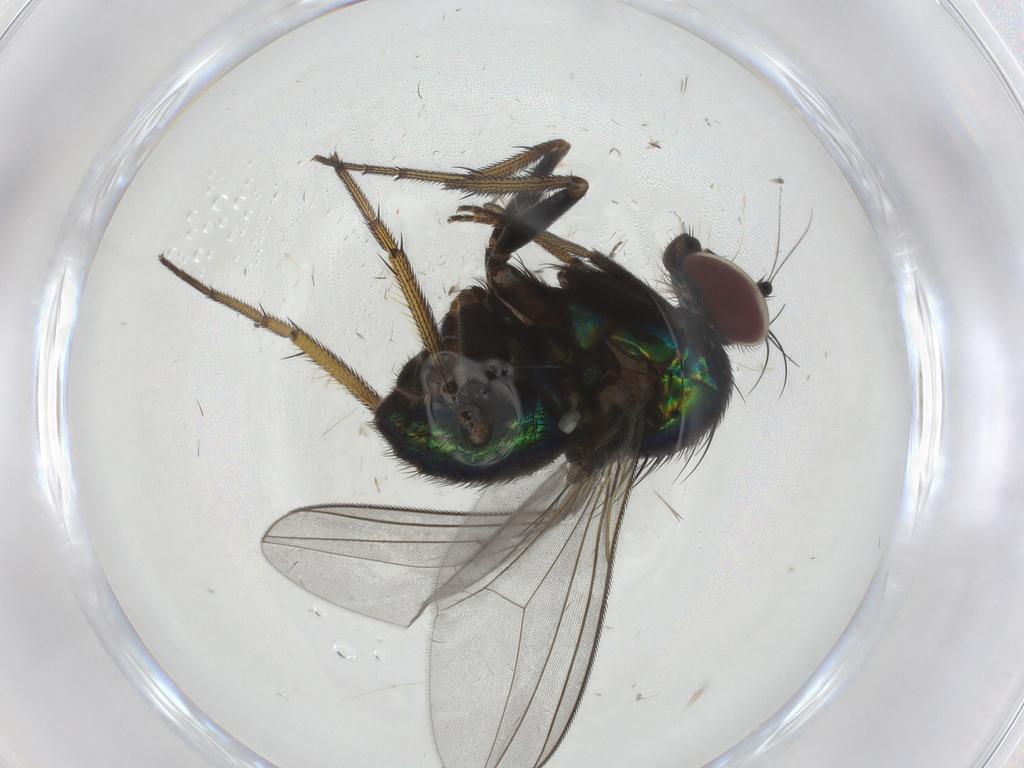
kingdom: Animalia
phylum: Arthropoda
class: Insecta
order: Diptera
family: Dolichopodidae
